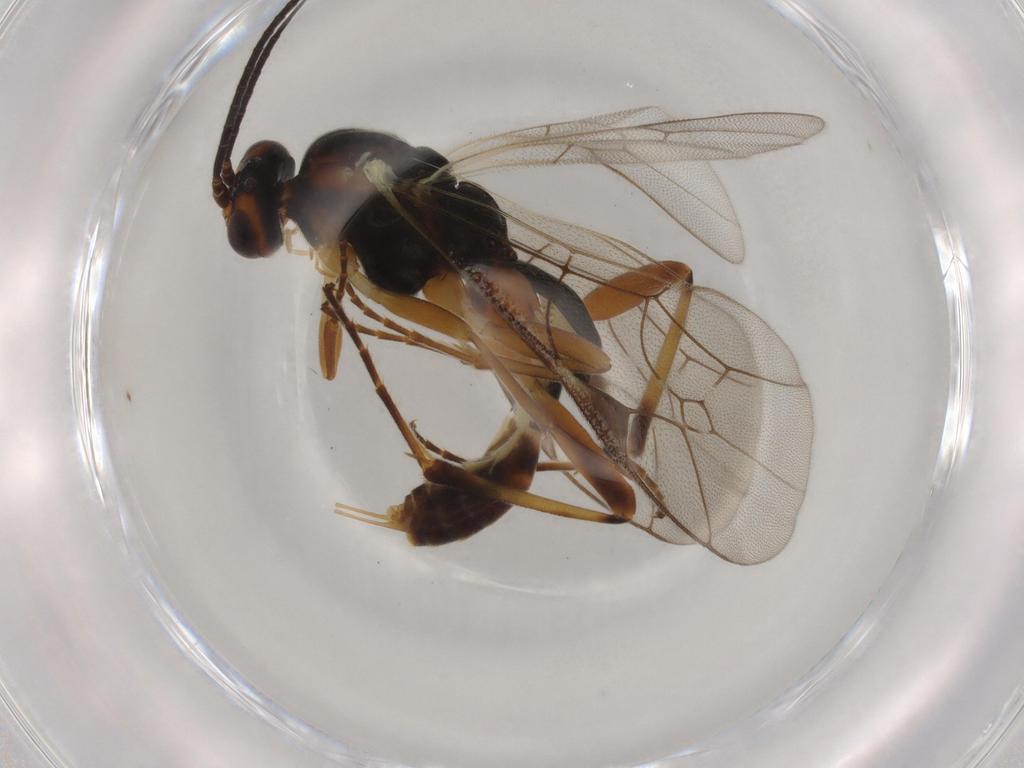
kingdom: Animalia
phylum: Arthropoda
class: Insecta
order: Hymenoptera
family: Ichneumonidae
